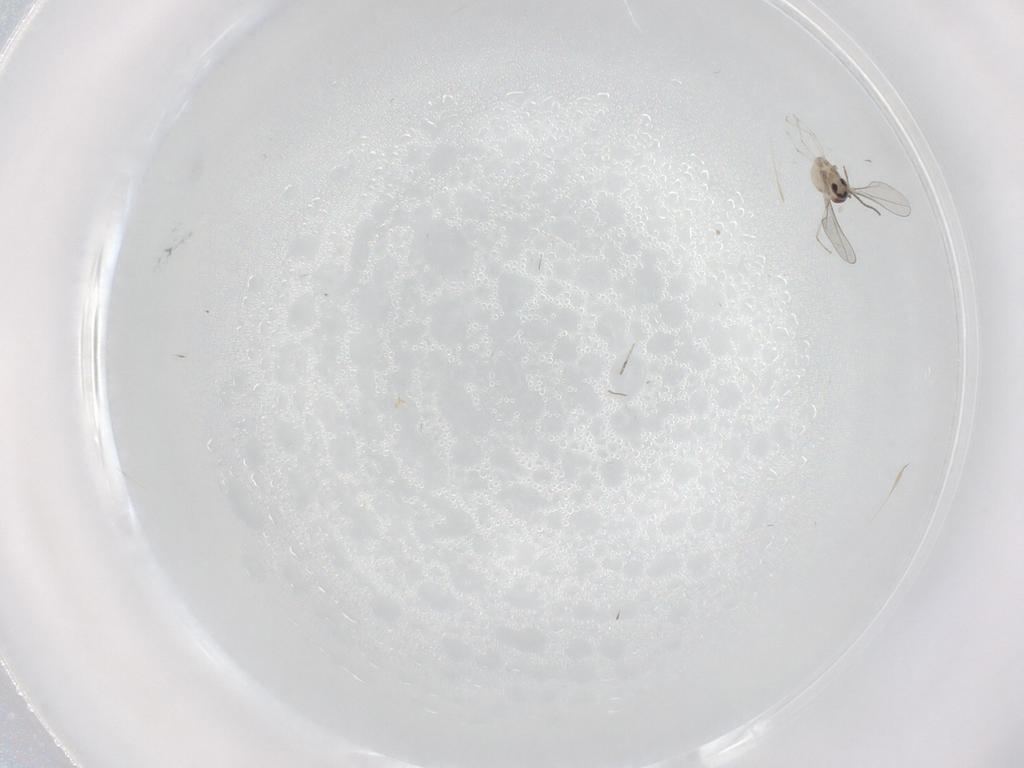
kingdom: Animalia
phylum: Arthropoda
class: Insecta
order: Diptera
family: Cecidomyiidae
